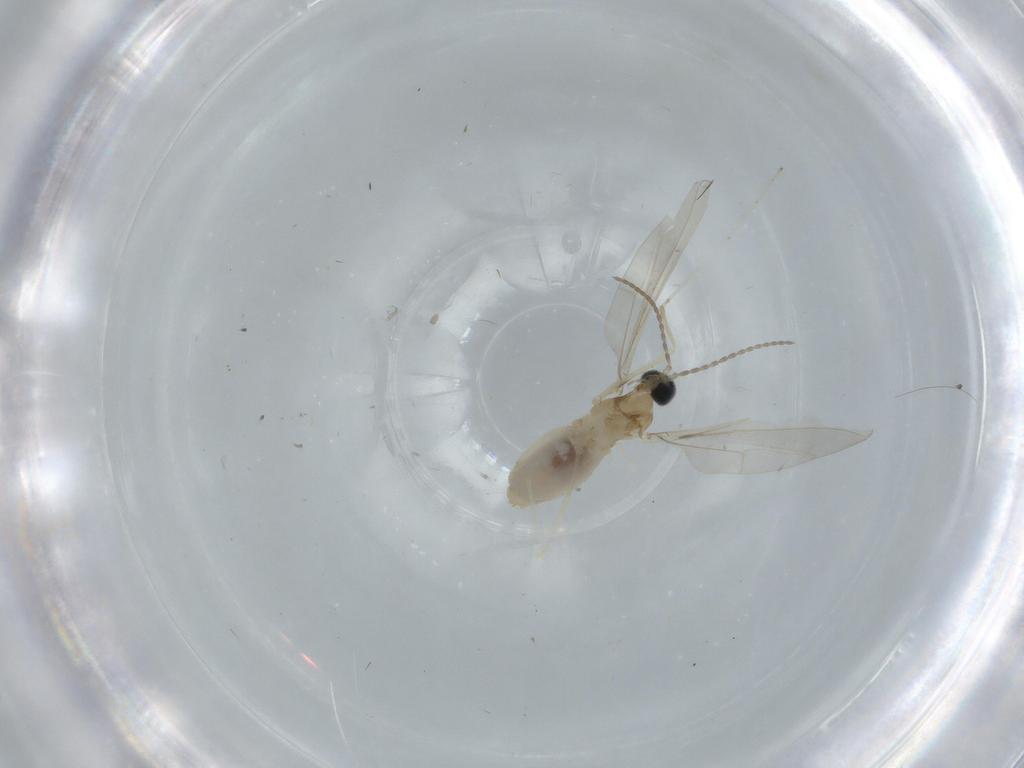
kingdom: Animalia
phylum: Arthropoda
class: Insecta
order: Diptera
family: Cecidomyiidae
